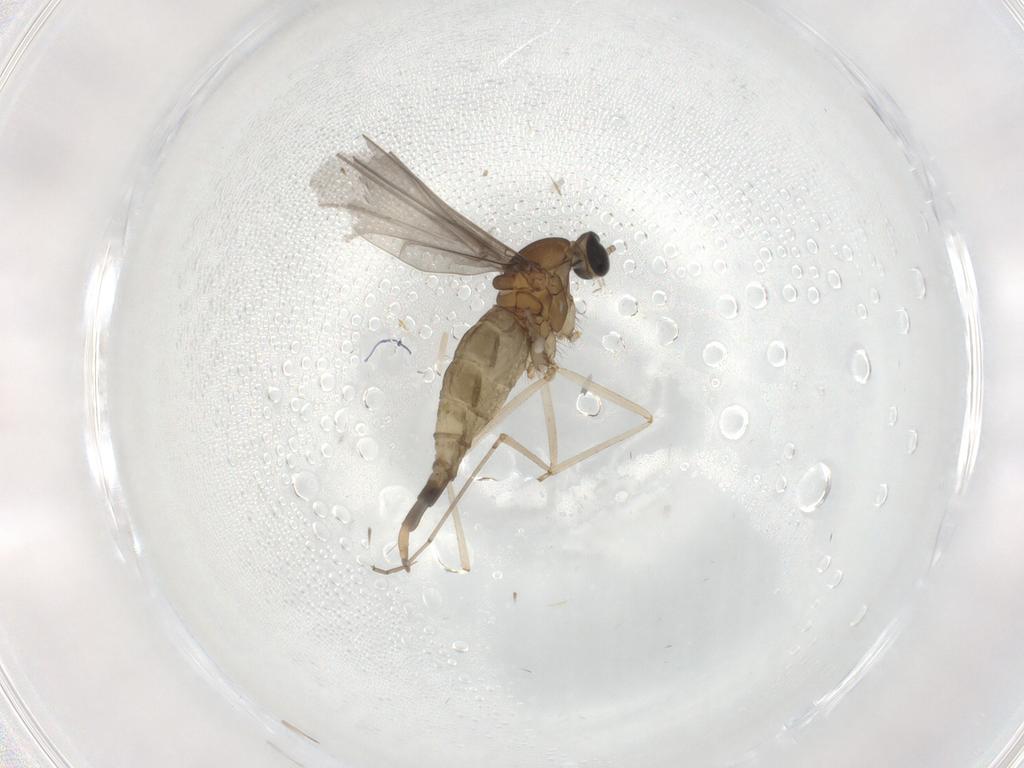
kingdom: Animalia
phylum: Arthropoda
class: Insecta
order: Diptera
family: Cecidomyiidae
